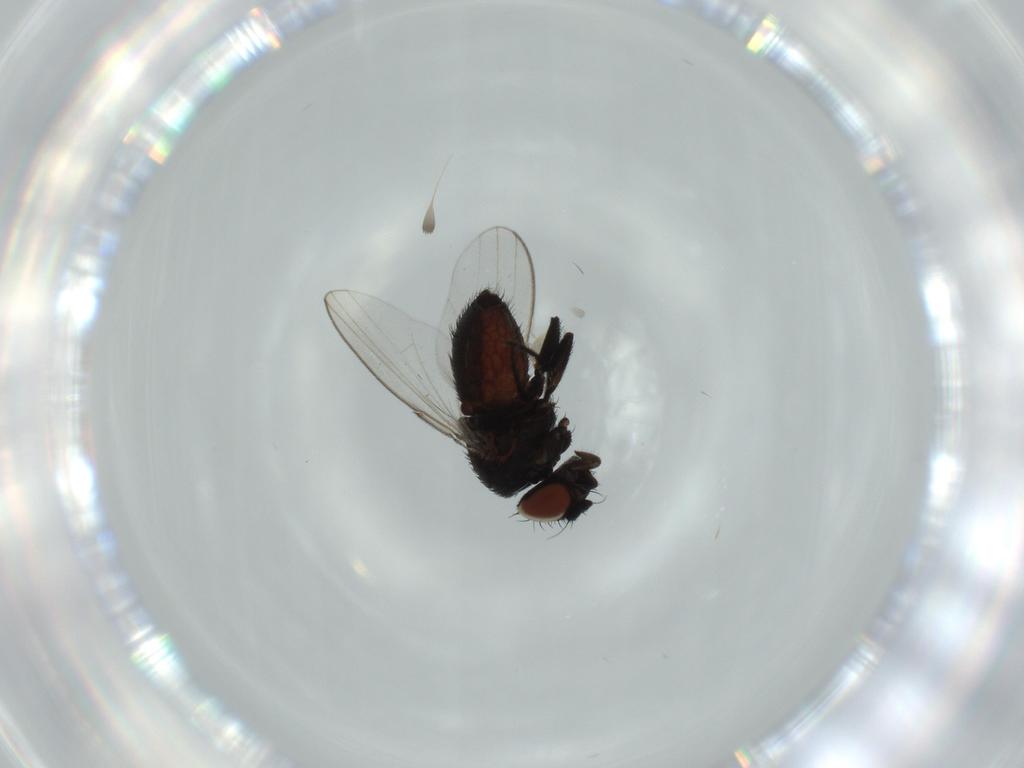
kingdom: Animalia
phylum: Arthropoda
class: Insecta
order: Diptera
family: Milichiidae
